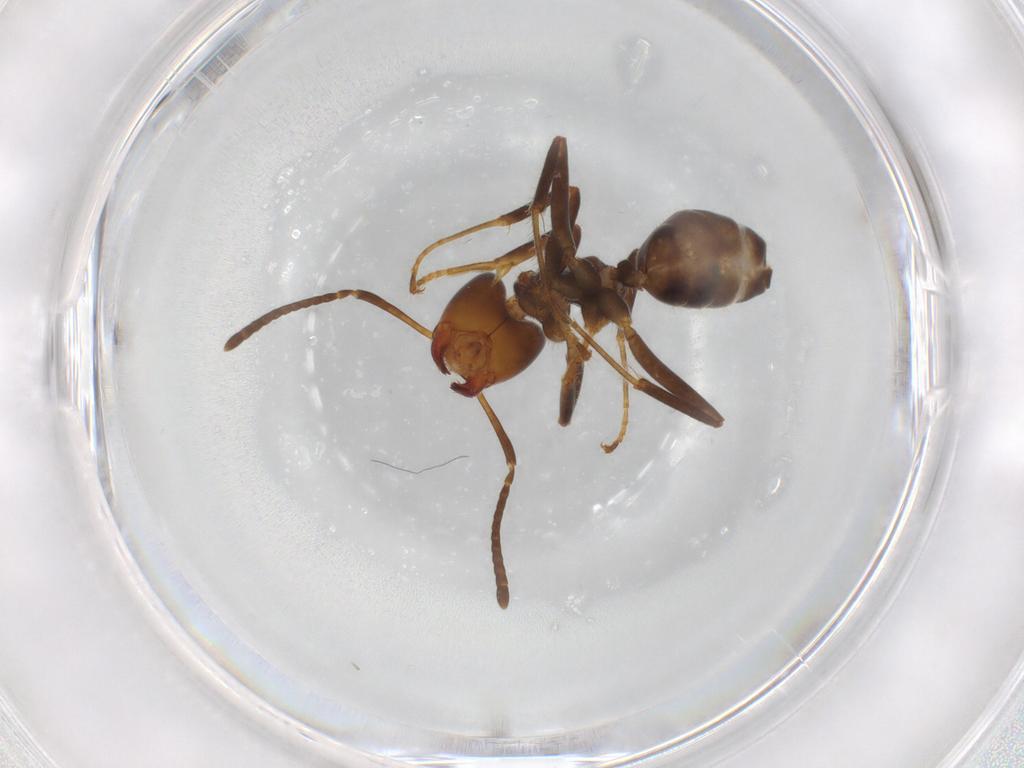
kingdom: Animalia
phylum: Arthropoda
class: Insecta
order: Hymenoptera
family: Formicidae
